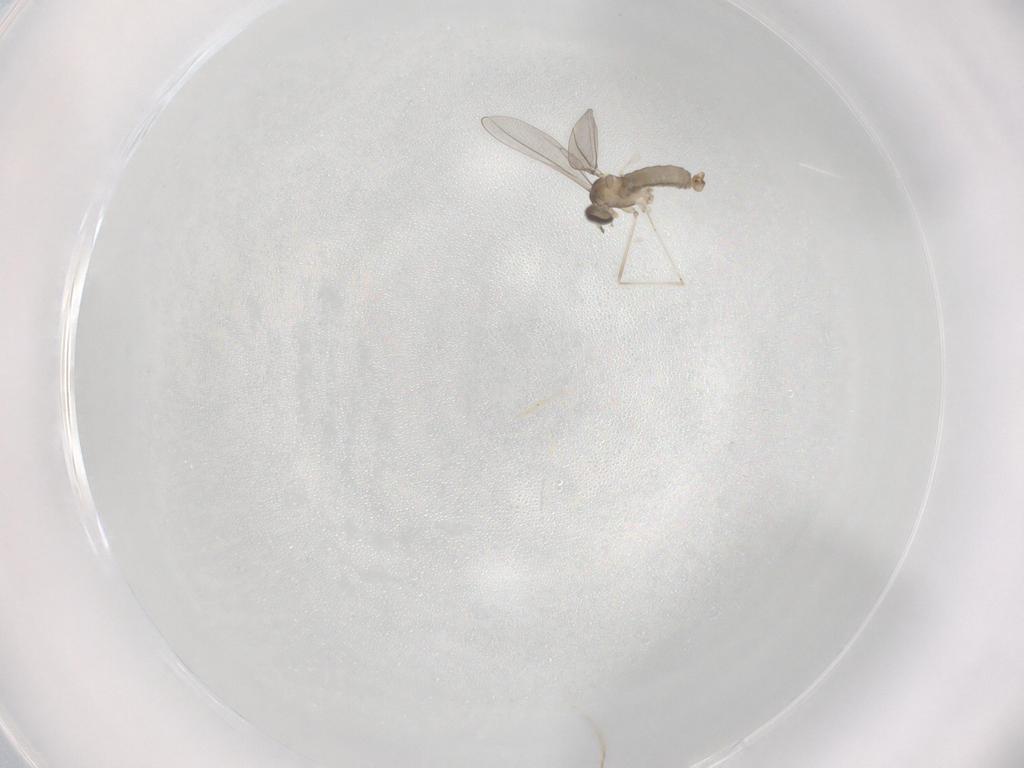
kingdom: Animalia
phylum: Arthropoda
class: Insecta
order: Diptera
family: Cecidomyiidae
